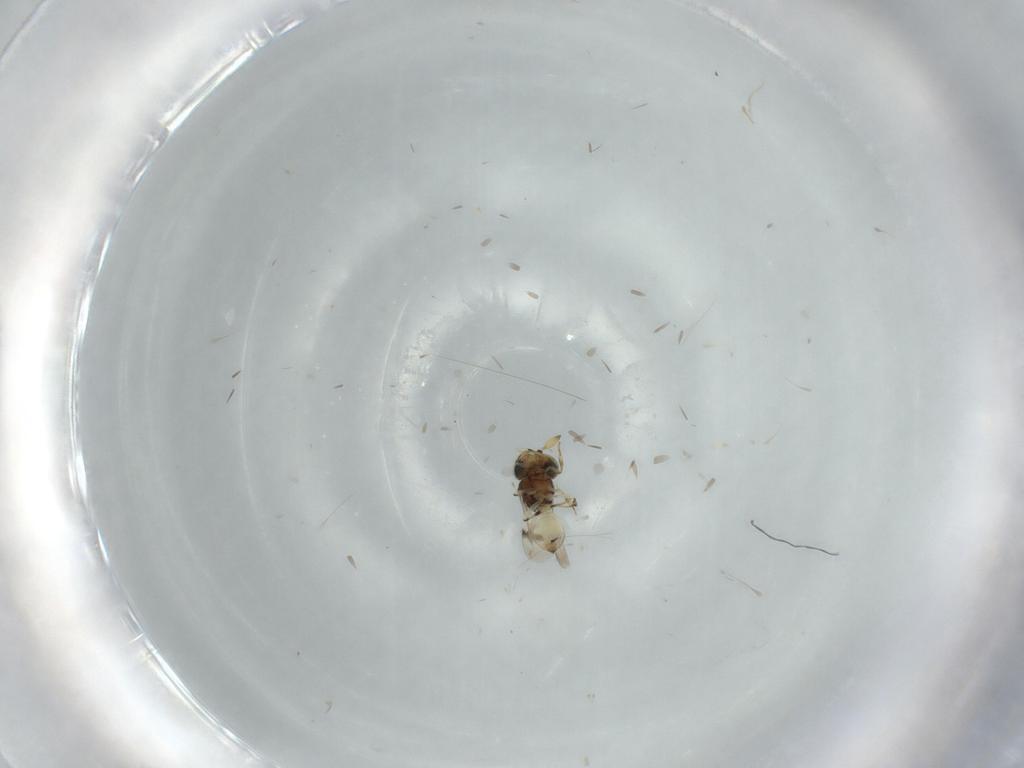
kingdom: Animalia
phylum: Arthropoda
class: Insecta
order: Hymenoptera
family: Scelionidae
